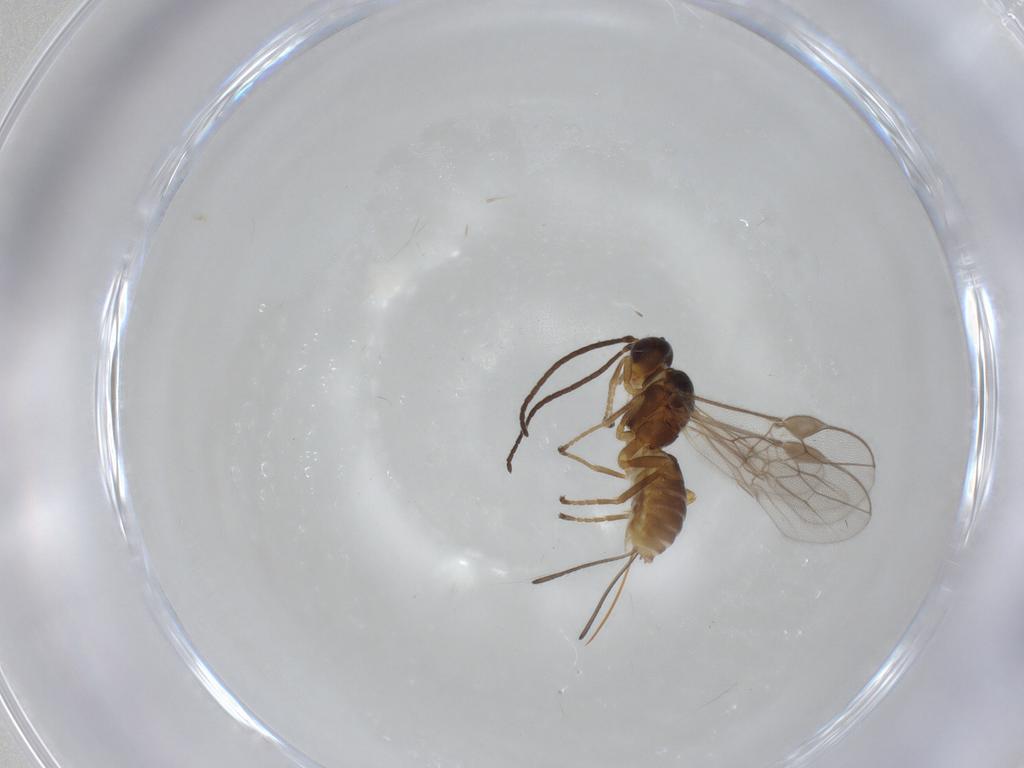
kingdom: Animalia
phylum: Arthropoda
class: Insecta
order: Hymenoptera
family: Braconidae
